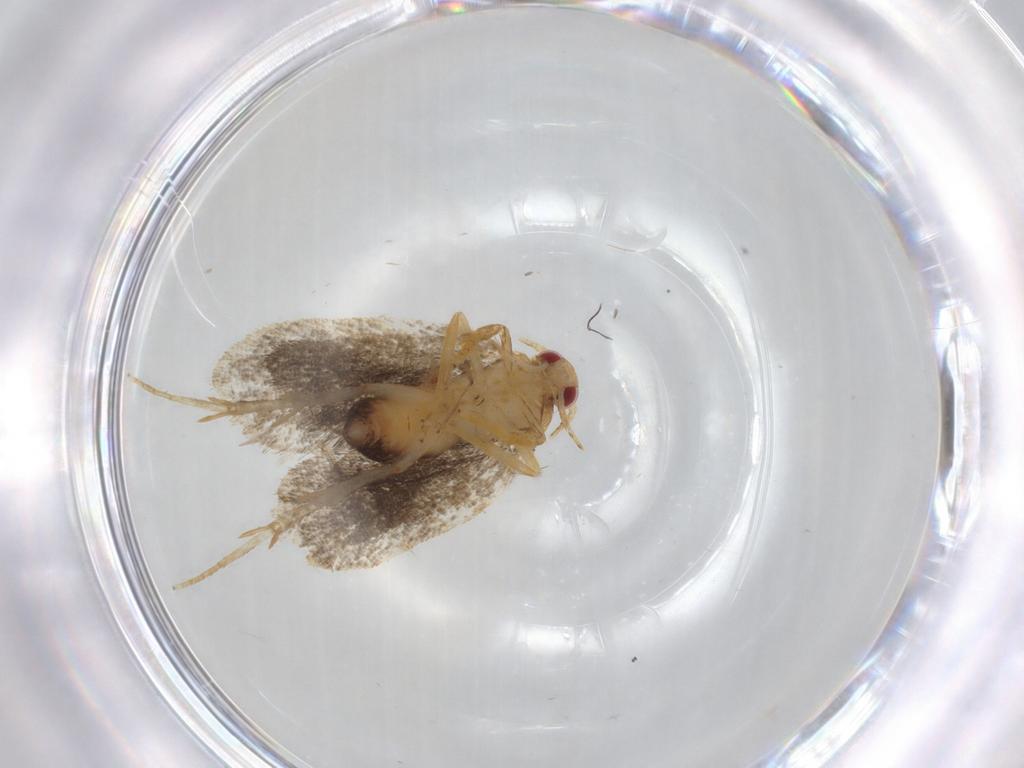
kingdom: Animalia
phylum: Arthropoda
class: Insecta
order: Lepidoptera
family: Gelechiidae
